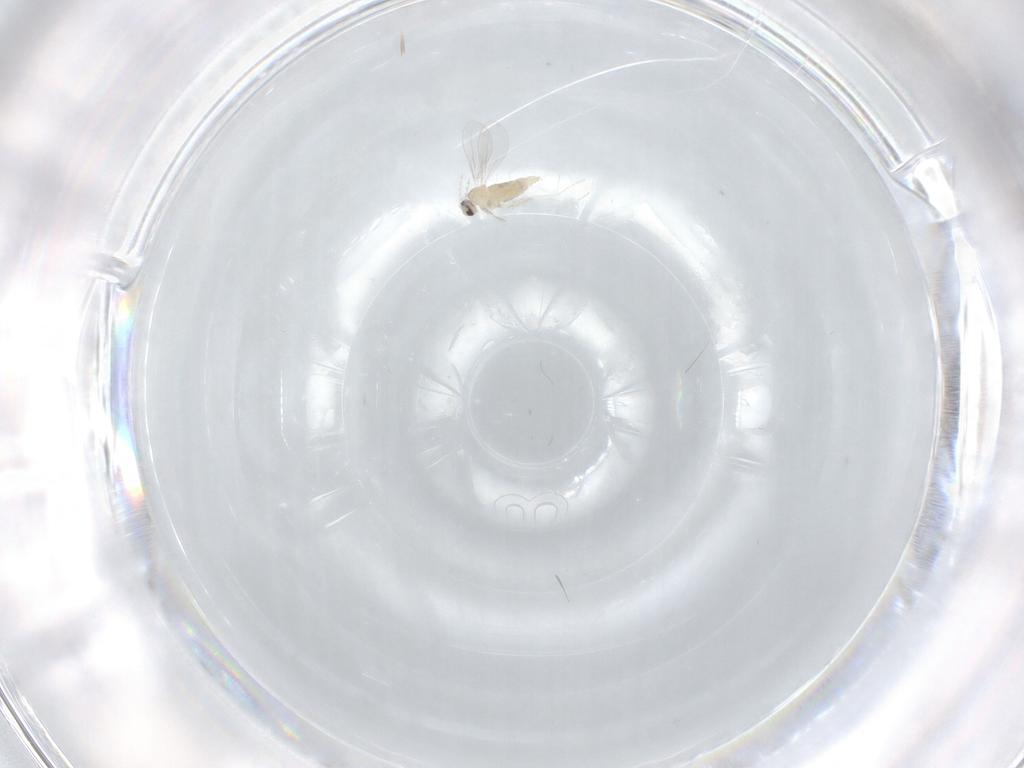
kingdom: Animalia
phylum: Arthropoda
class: Insecta
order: Diptera
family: Cecidomyiidae
